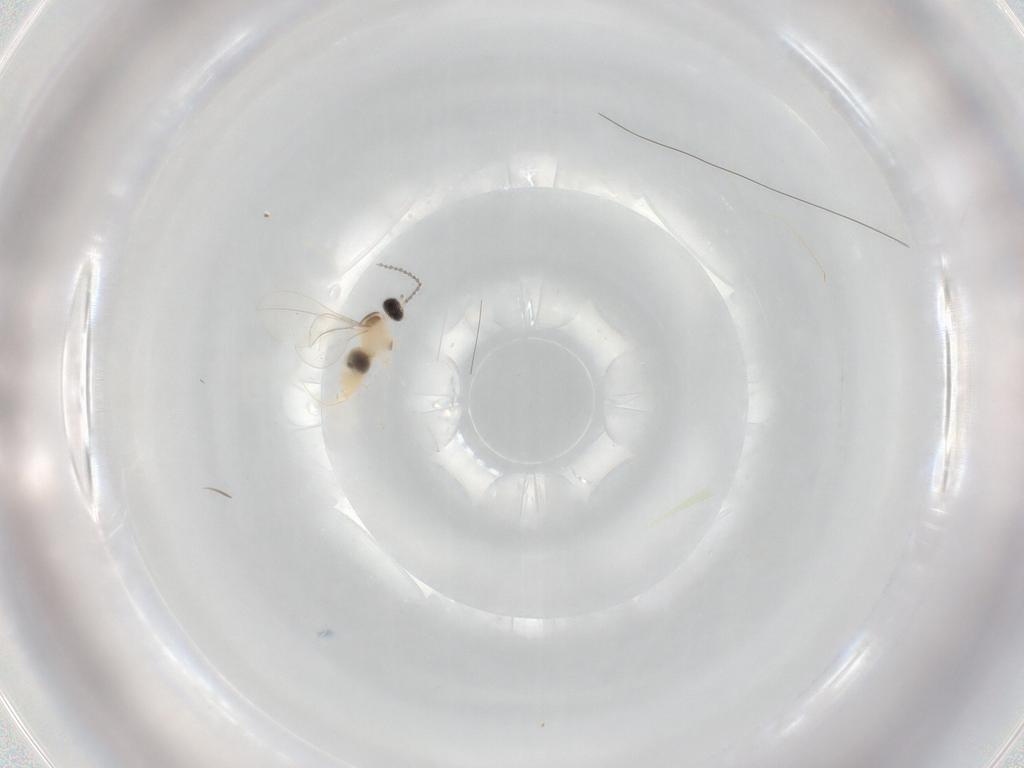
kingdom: Animalia
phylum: Arthropoda
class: Insecta
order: Diptera
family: Cecidomyiidae
